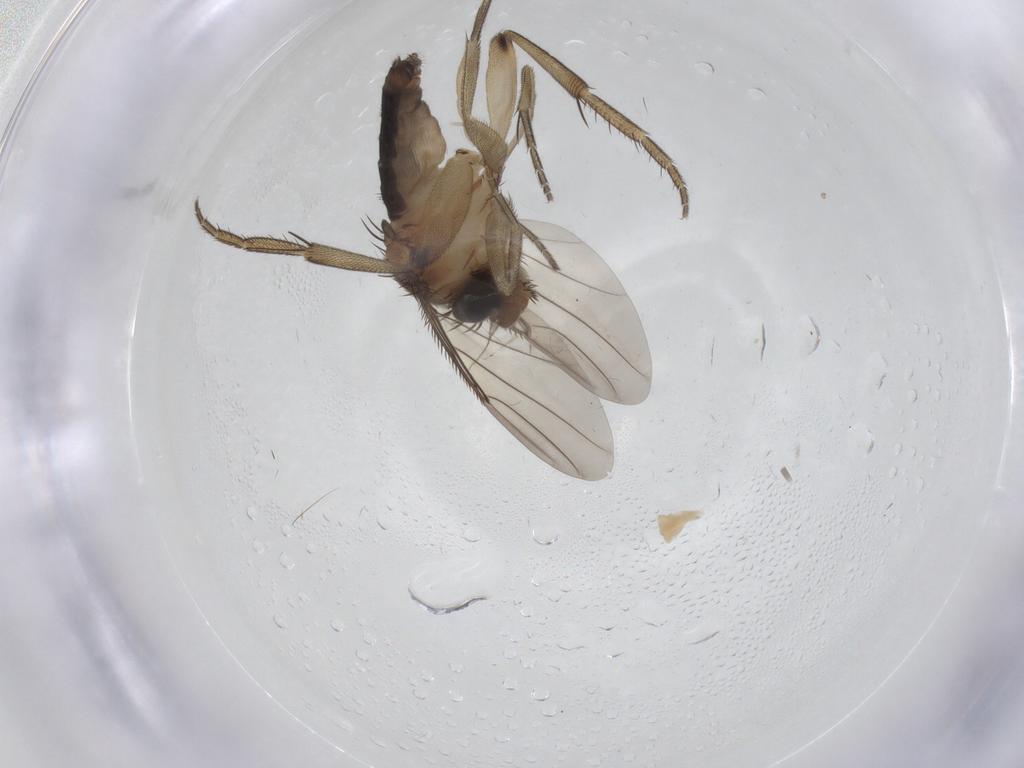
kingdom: Animalia
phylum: Arthropoda
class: Insecta
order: Diptera
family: Phoridae
